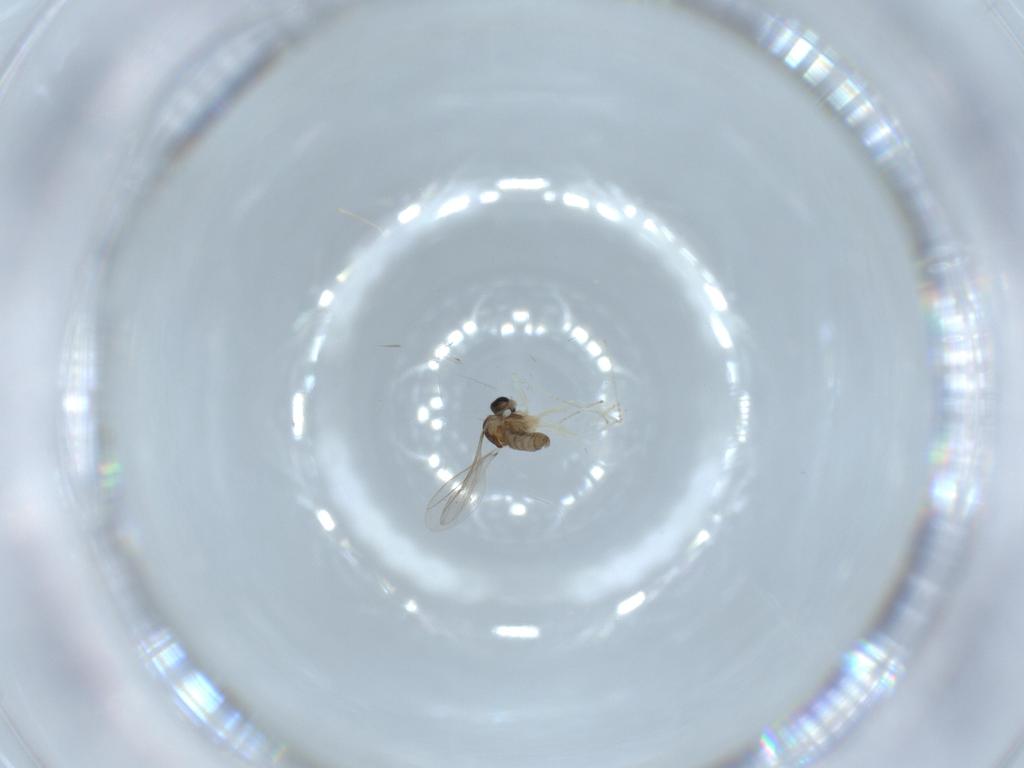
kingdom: Animalia
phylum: Arthropoda
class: Insecta
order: Diptera
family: Cecidomyiidae
